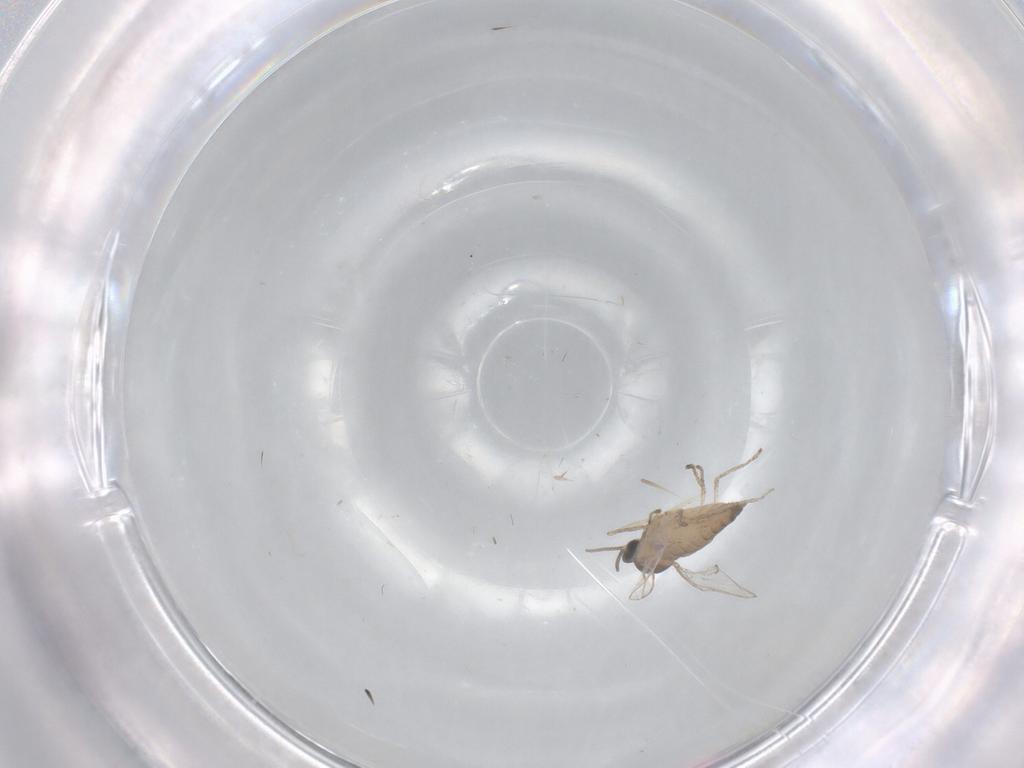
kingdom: Animalia
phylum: Arthropoda
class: Insecta
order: Diptera
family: Cecidomyiidae
